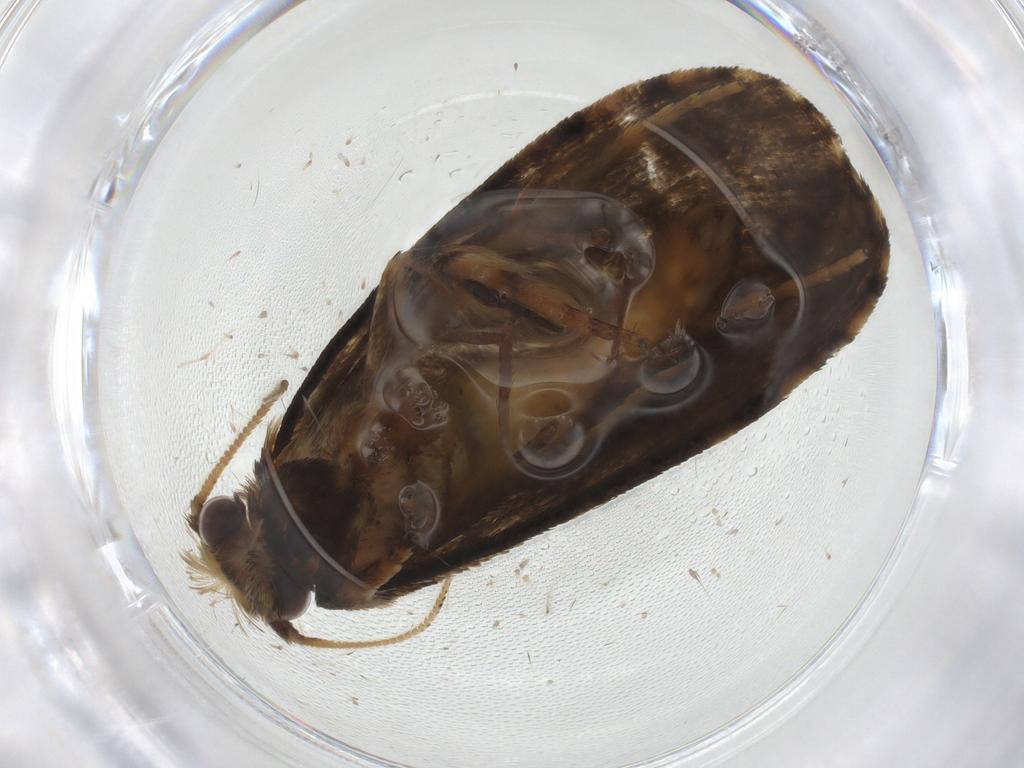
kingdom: Animalia
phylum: Arthropoda
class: Insecta
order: Lepidoptera
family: Tineidae
